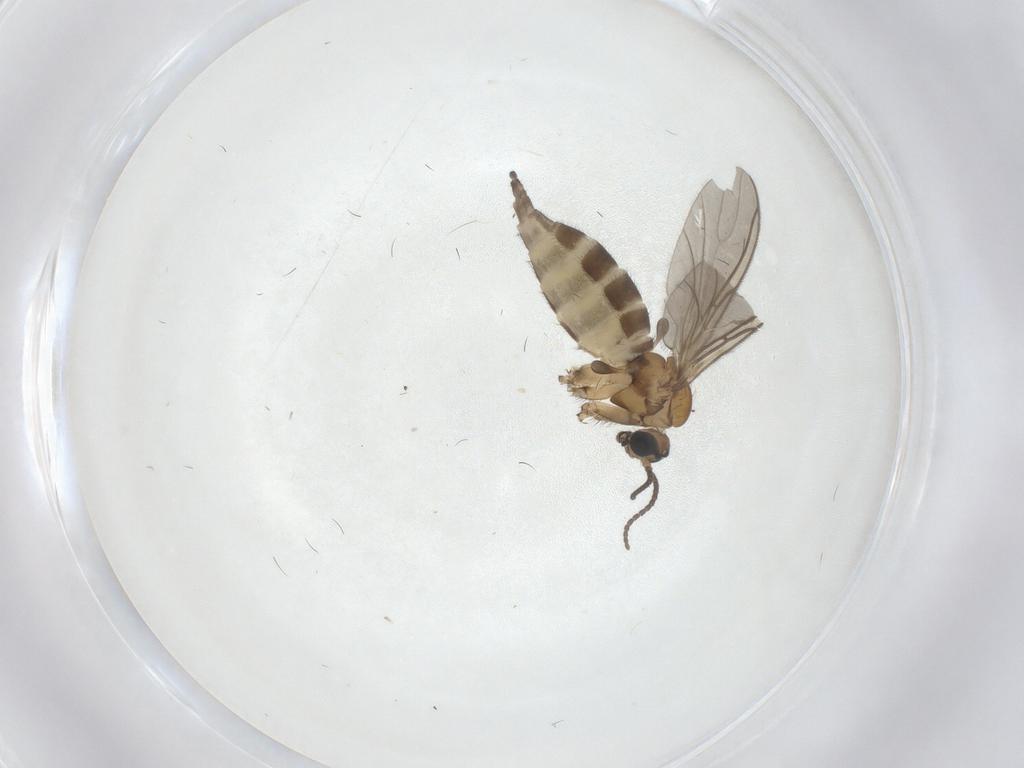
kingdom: Animalia
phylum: Arthropoda
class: Insecta
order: Diptera
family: Sciaridae
